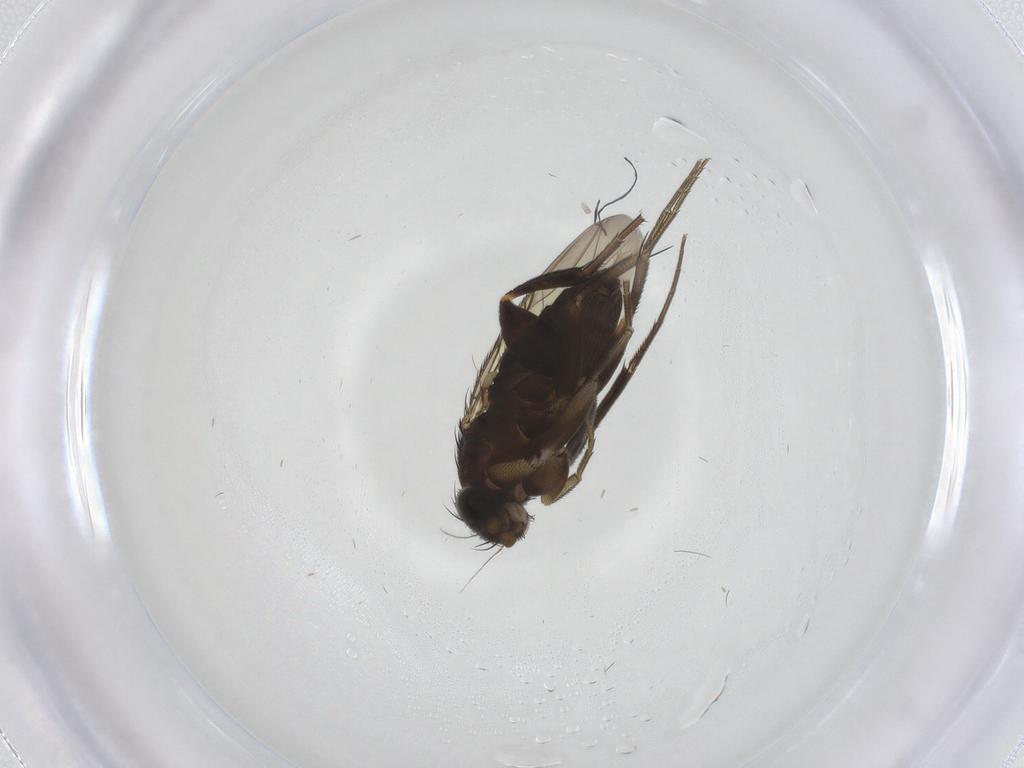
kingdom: Animalia
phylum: Arthropoda
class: Insecta
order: Diptera
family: Phoridae
